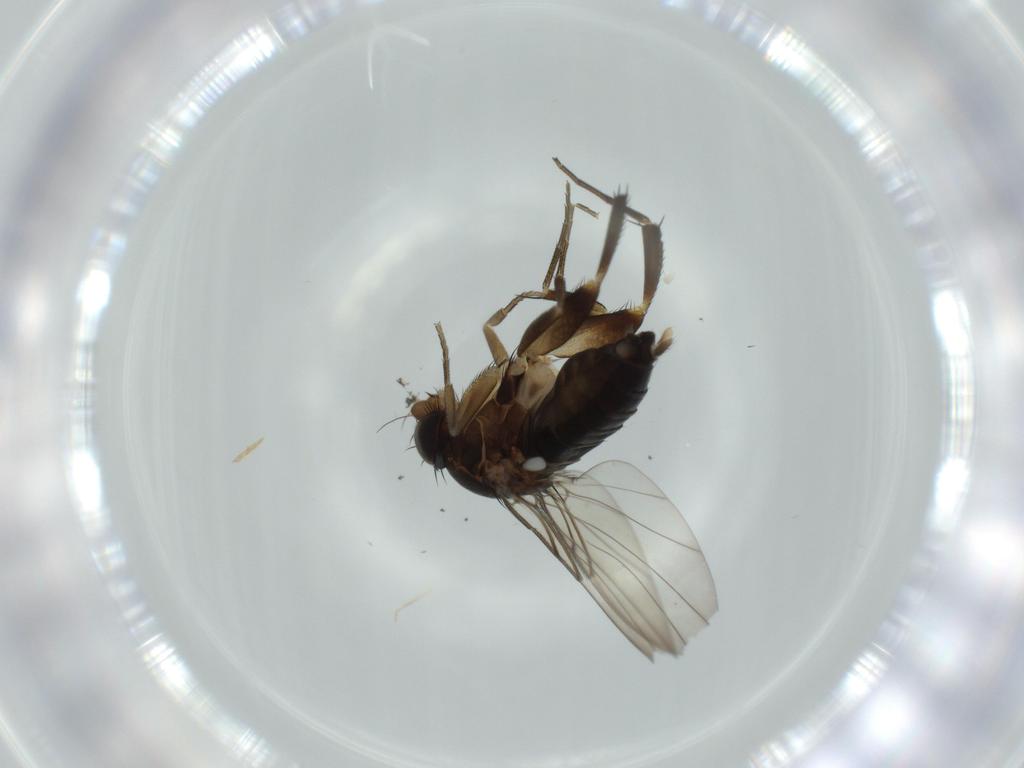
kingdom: Animalia
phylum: Arthropoda
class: Insecta
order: Diptera
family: Phoridae
